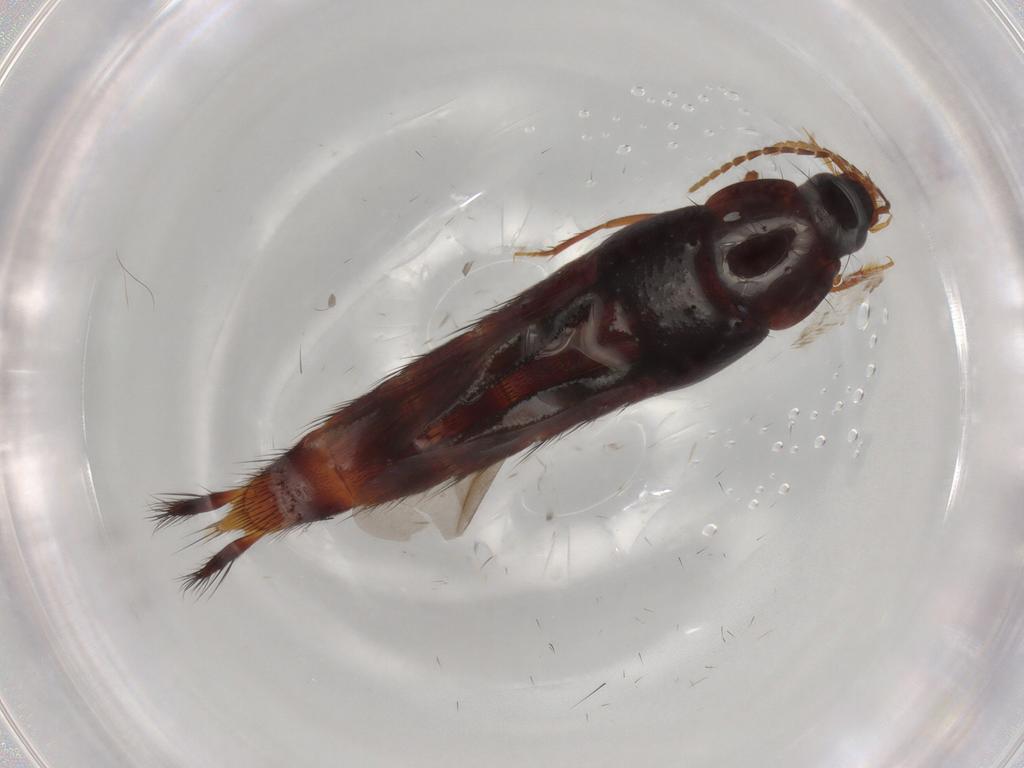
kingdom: Animalia
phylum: Arthropoda
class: Insecta
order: Coleoptera
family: Staphylinidae
